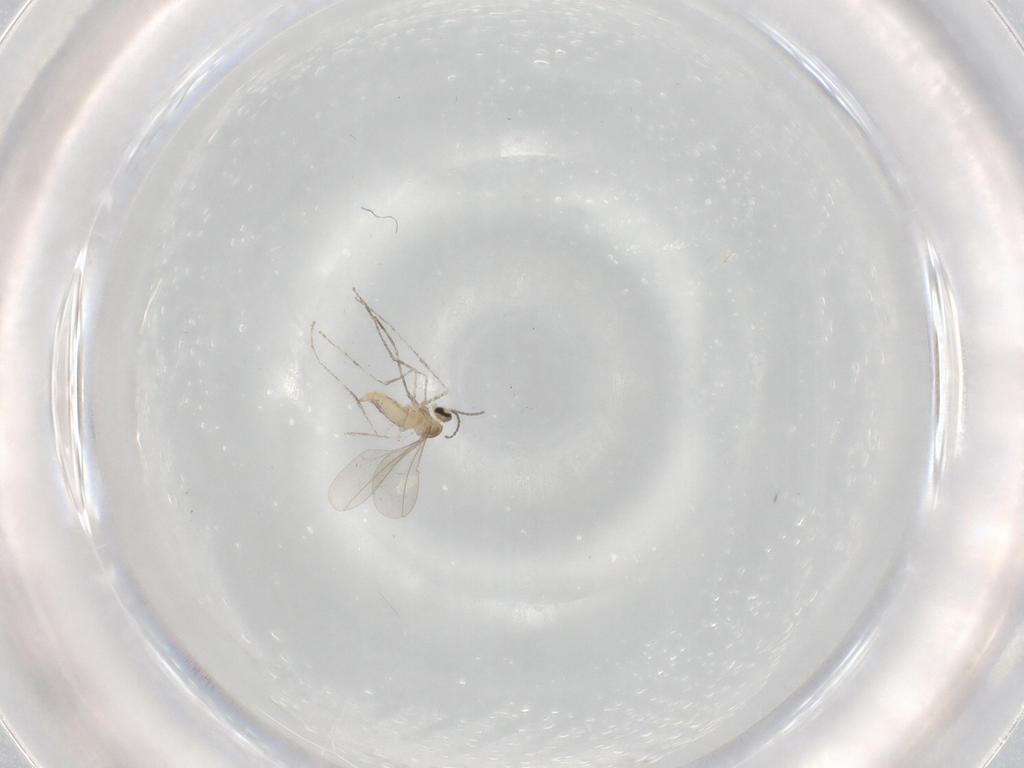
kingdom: Animalia
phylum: Arthropoda
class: Insecta
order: Diptera
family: Cecidomyiidae
